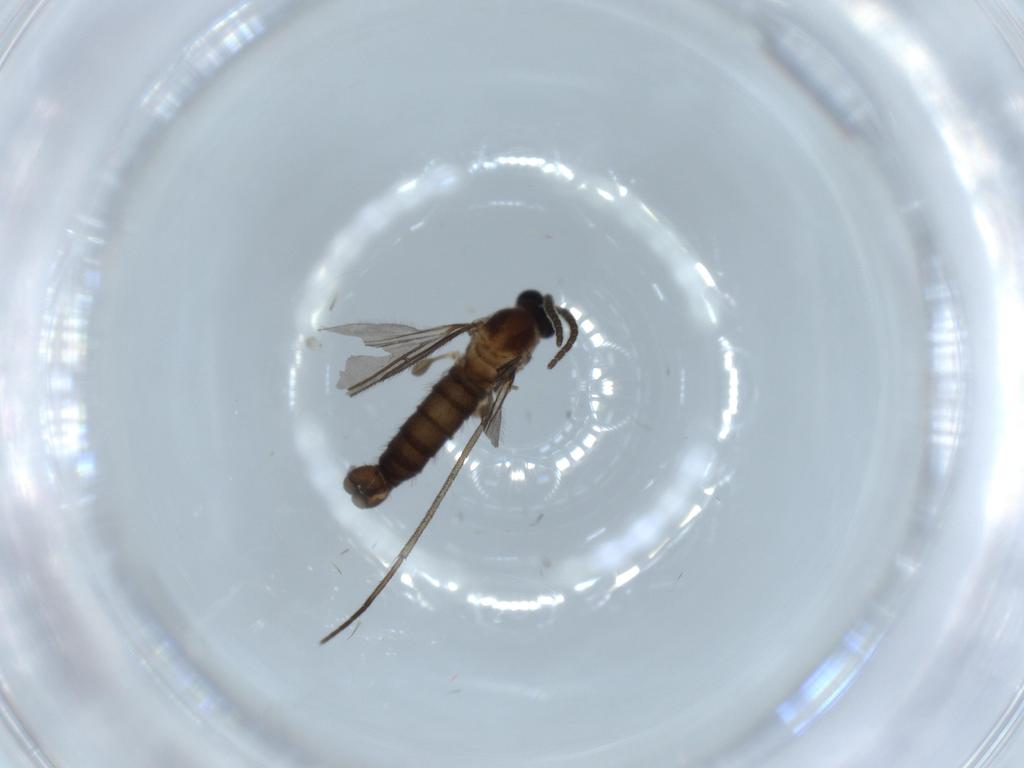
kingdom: Animalia
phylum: Arthropoda
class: Insecta
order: Diptera
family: Sciaridae
